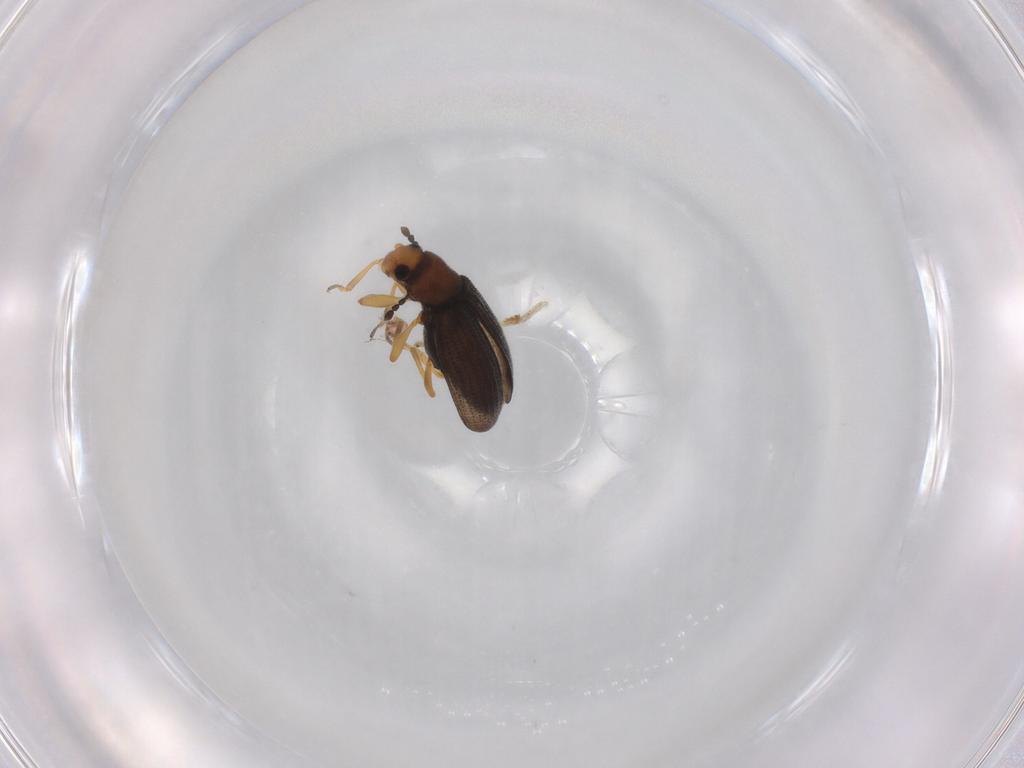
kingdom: Animalia
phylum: Arthropoda
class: Insecta
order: Coleoptera
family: Latridiidae
